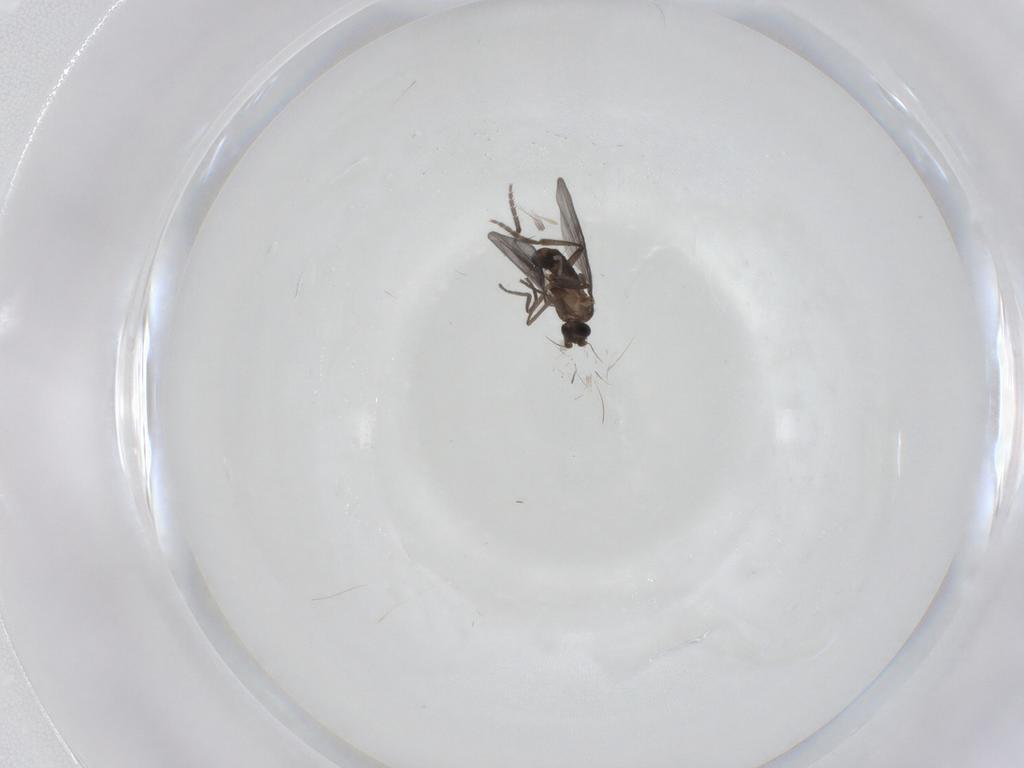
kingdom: Animalia
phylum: Arthropoda
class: Insecta
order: Diptera
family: Phoridae
